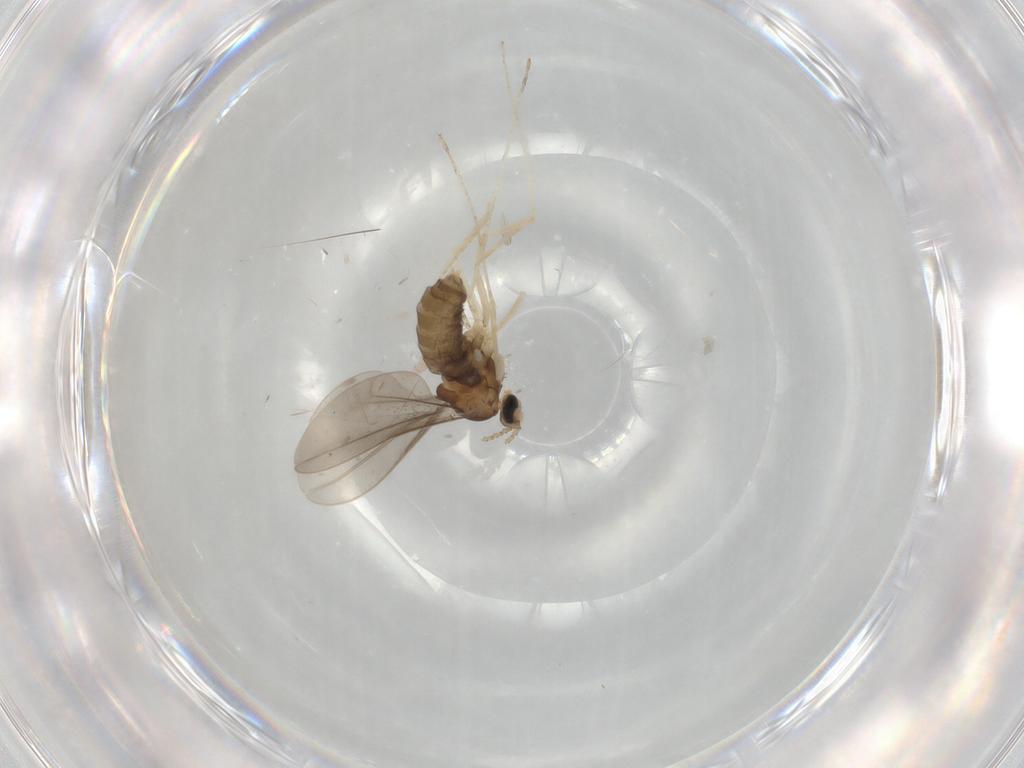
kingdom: Animalia
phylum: Arthropoda
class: Insecta
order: Diptera
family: Cecidomyiidae
